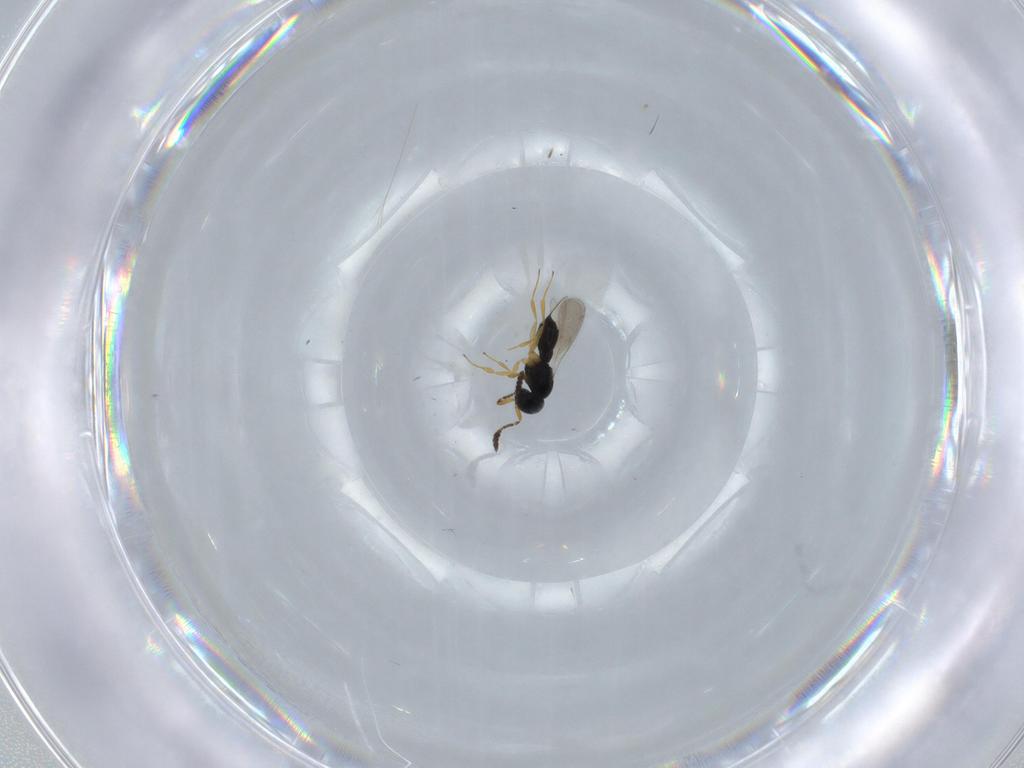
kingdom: Animalia
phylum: Arthropoda
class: Insecta
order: Hymenoptera
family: Scelionidae
